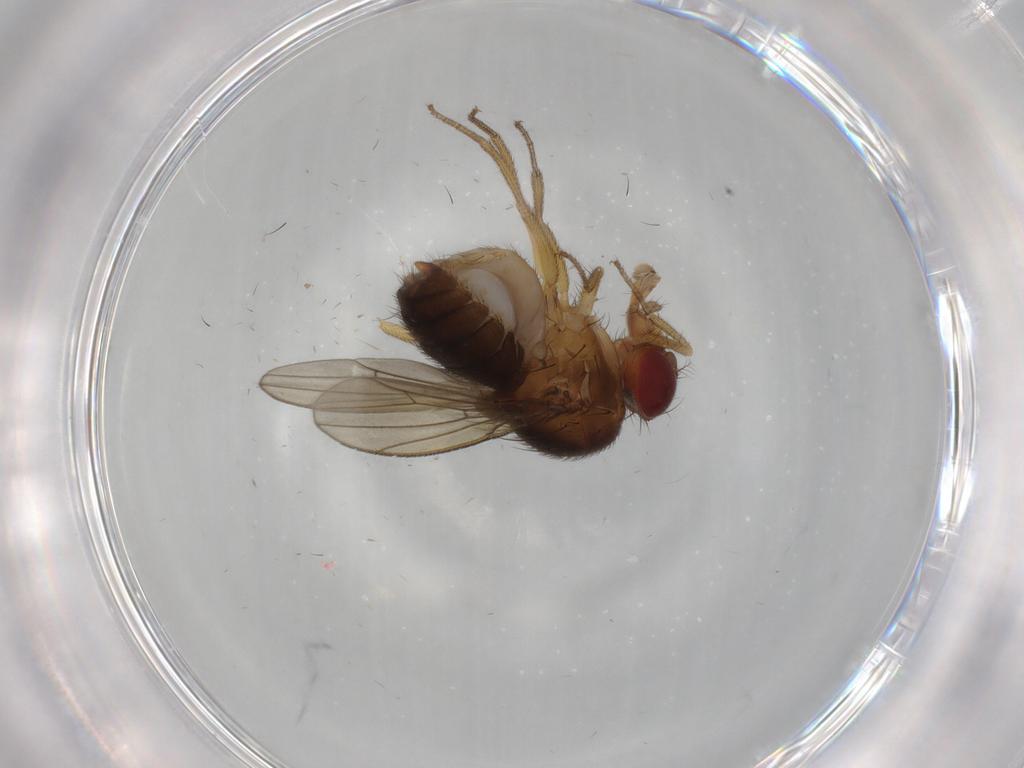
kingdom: Animalia
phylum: Arthropoda
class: Insecta
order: Diptera
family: Drosophilidae
